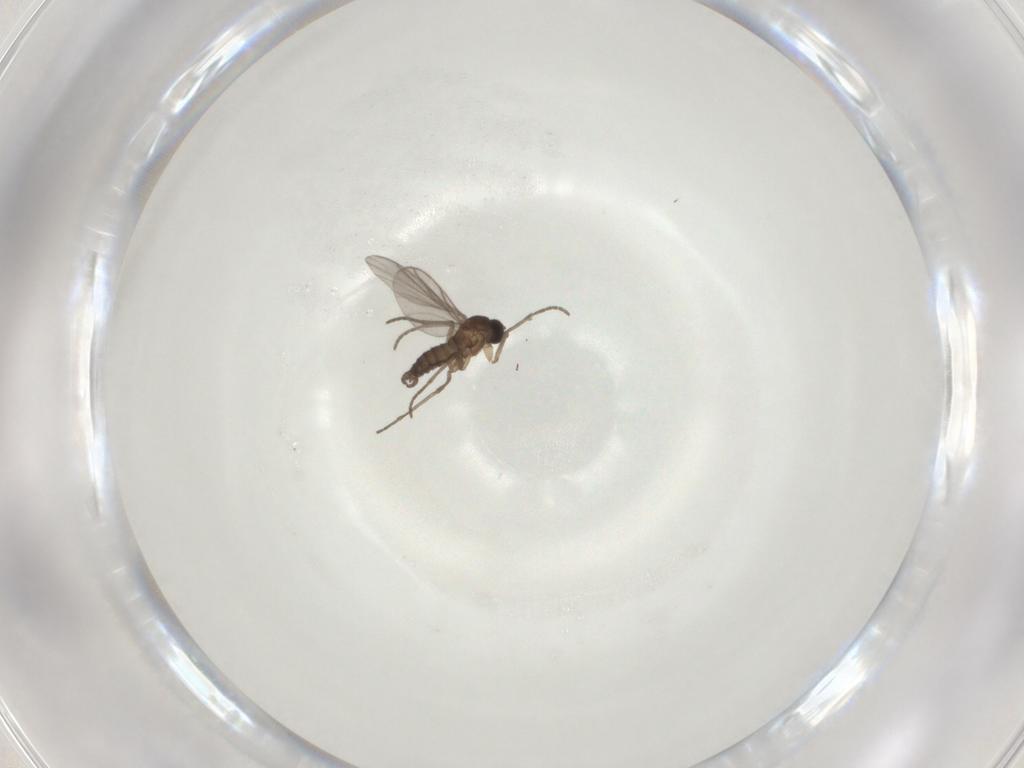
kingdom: Animalia
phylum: Arthropoda
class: Insecta
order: Diptera
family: Sciaridae
